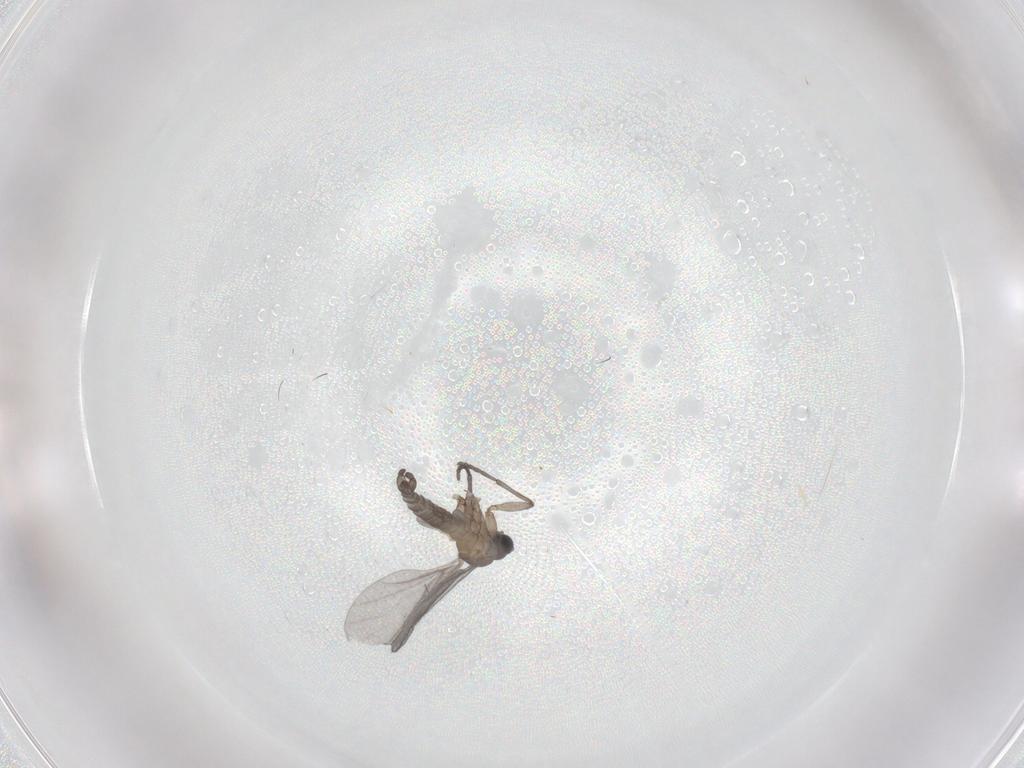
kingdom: Animalia
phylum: Arthropoda
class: Insecta
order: Diptera
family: Sciaridae
